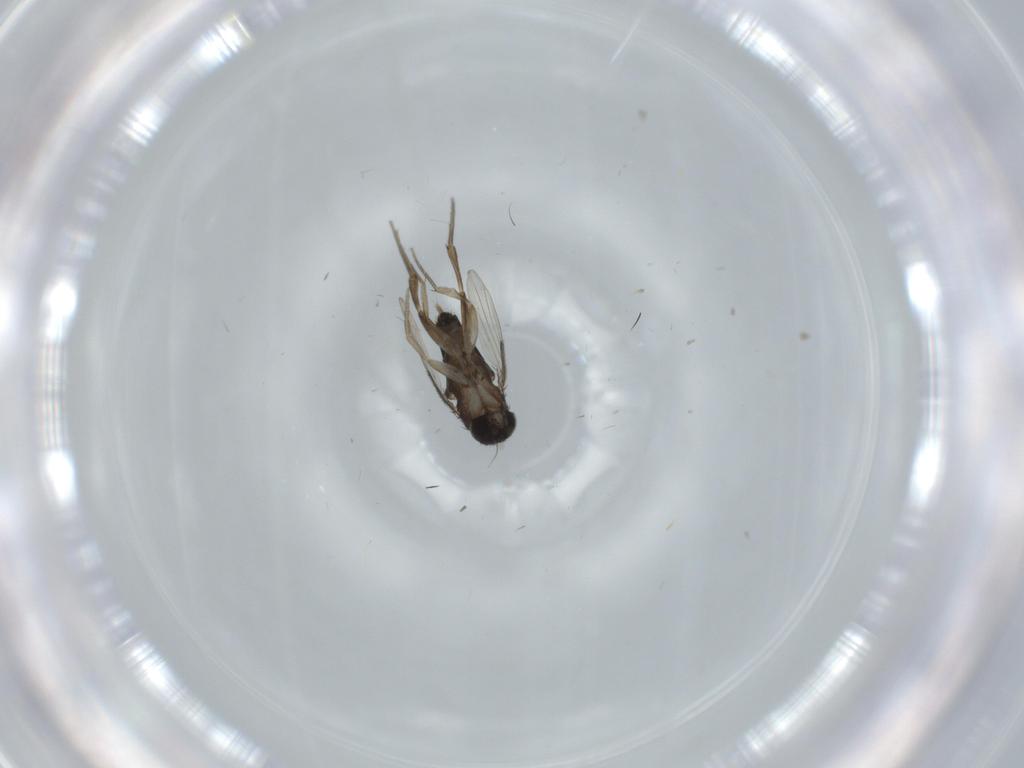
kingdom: Animalia
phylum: Arthropoda
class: Insecta
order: Diptera
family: Phoridae
